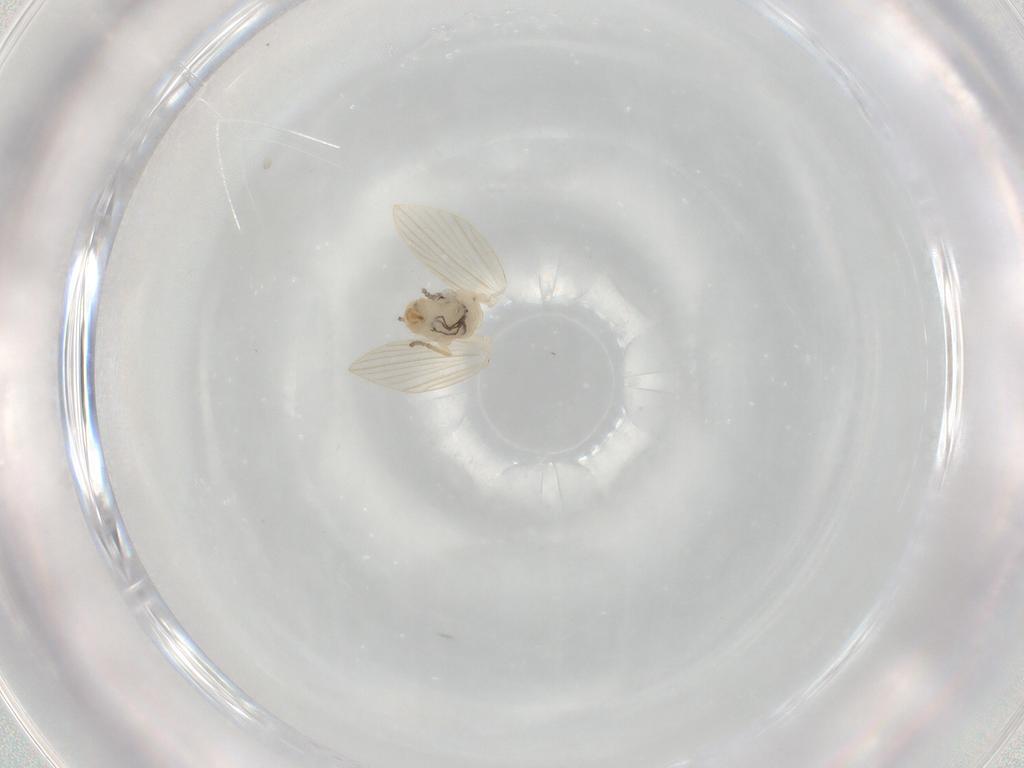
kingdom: Animalia
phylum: Arthropoda
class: Insecta
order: Diptera
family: Psychodidae
